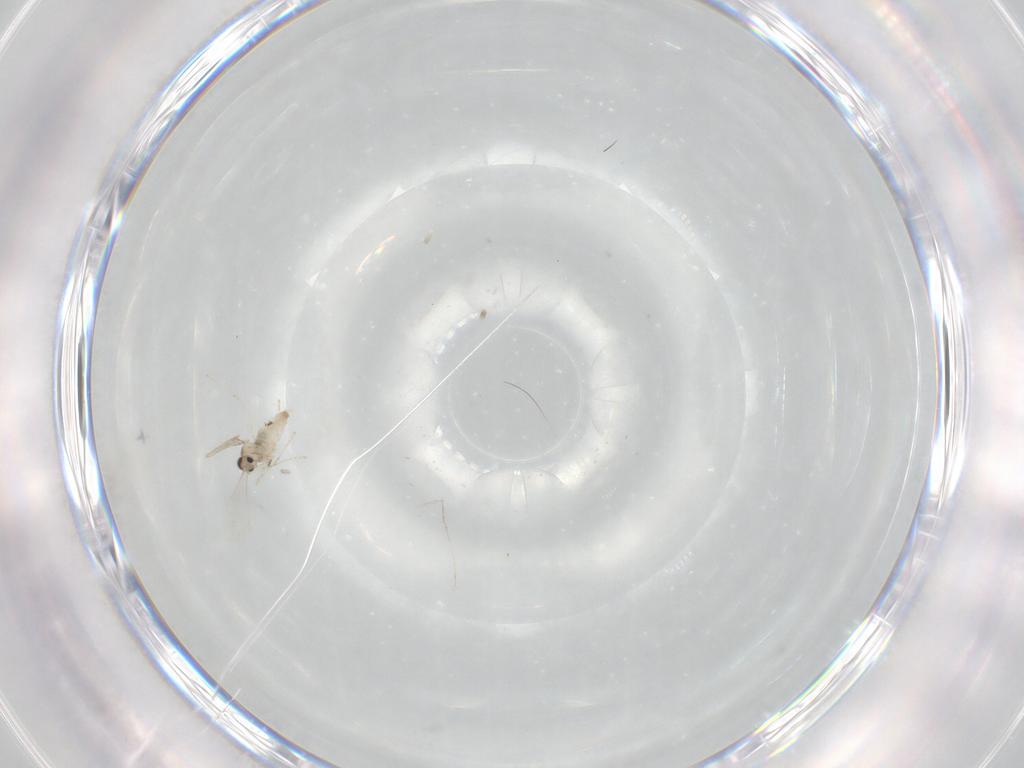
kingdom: Animalia
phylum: Arthropoda
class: Insecta
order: Diptera
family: Cecidomyiidae
